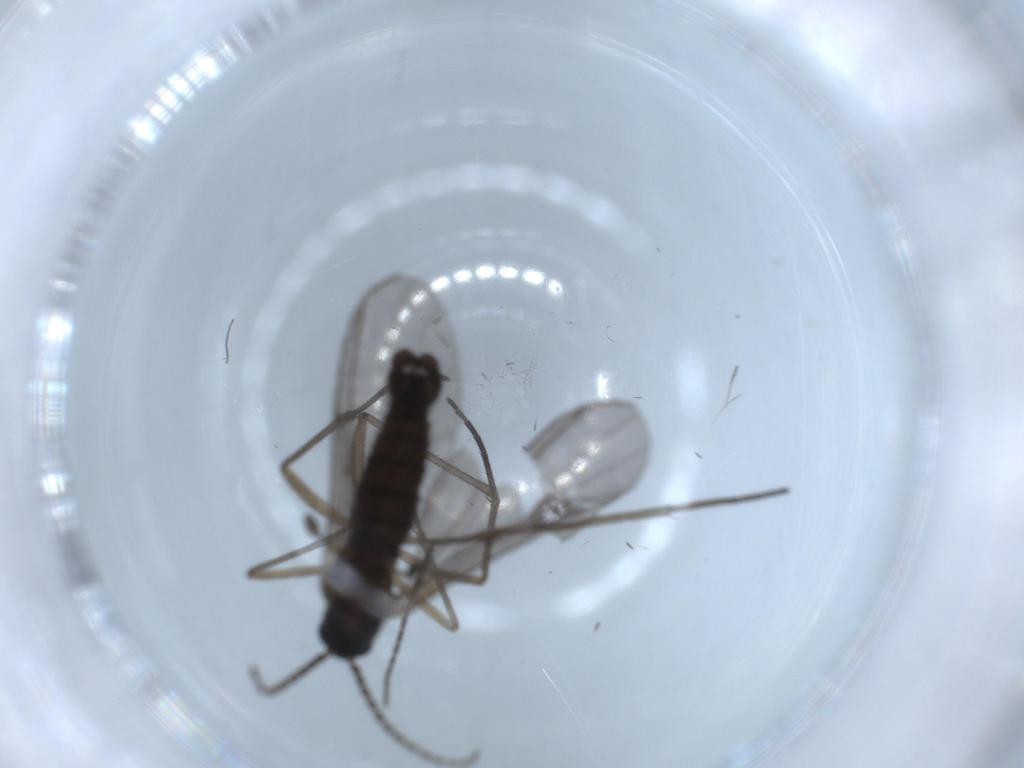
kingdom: Animalia
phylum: Arthropoda
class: Insecta
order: Diptera
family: Sciaridae
